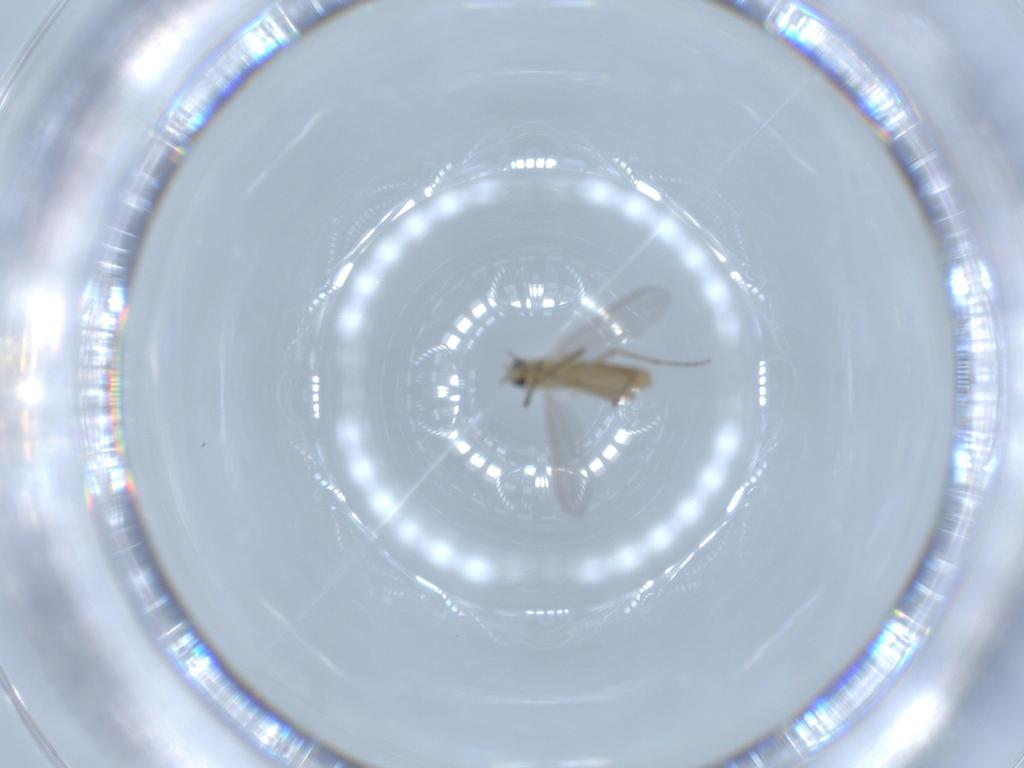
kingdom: Animalia
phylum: Arthropoda
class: Insecta
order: Diptera
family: Chironomidae
